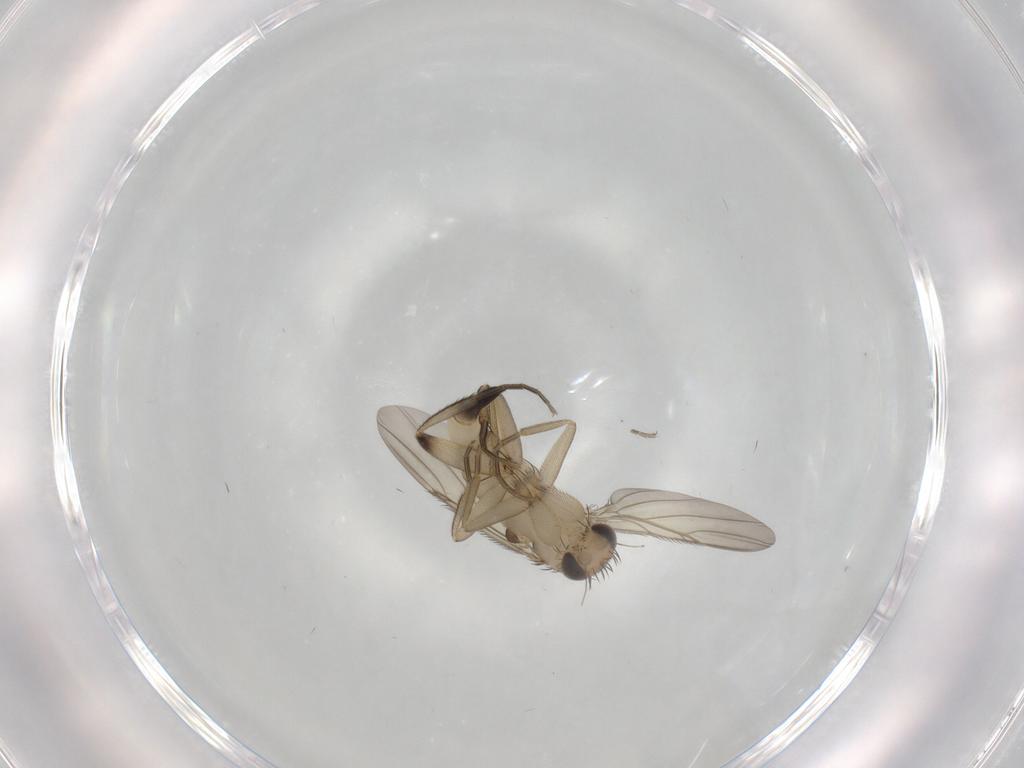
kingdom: Animalia
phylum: Arthropoda
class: Insecta
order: Diptera
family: Phoridae
